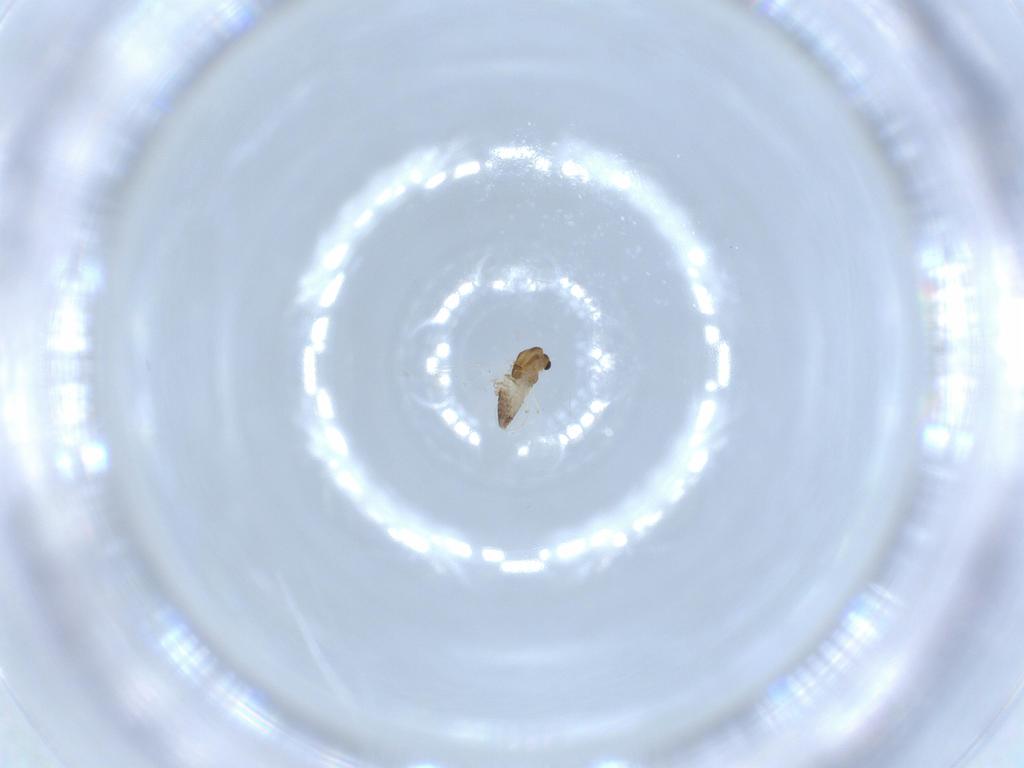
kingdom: Animalia
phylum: Arthropoda
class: Insecta
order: Diptera
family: Chironomidae
